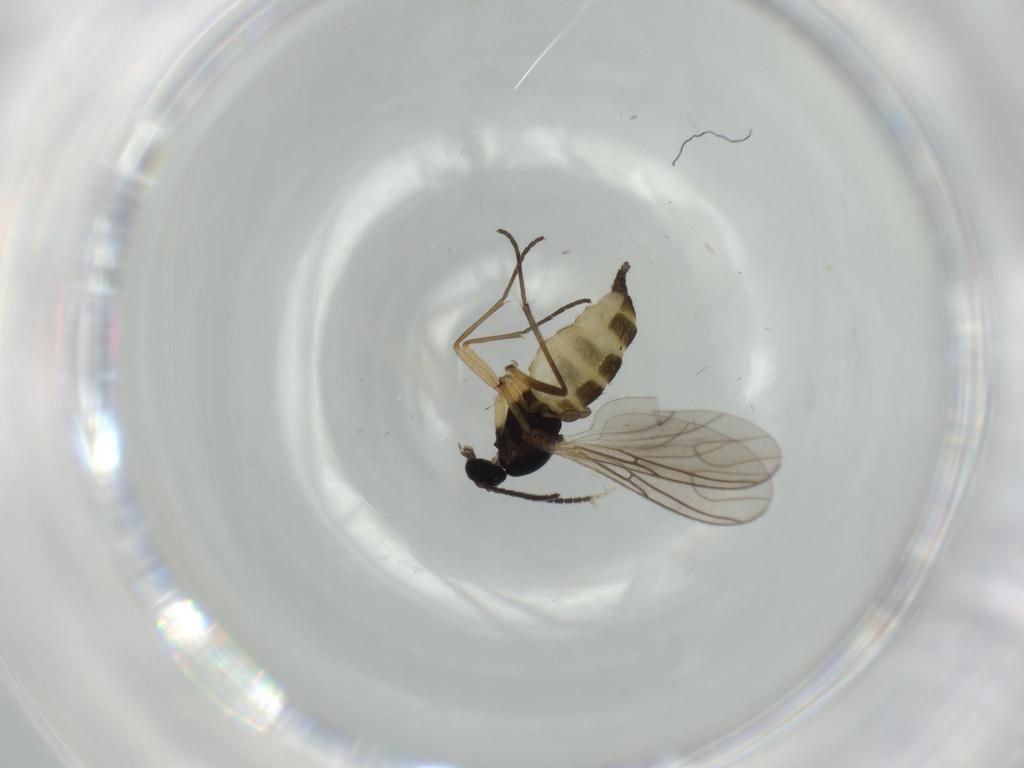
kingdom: Animalia
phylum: Arthropoda
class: Insecta
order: Diptera
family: Sciaridae
